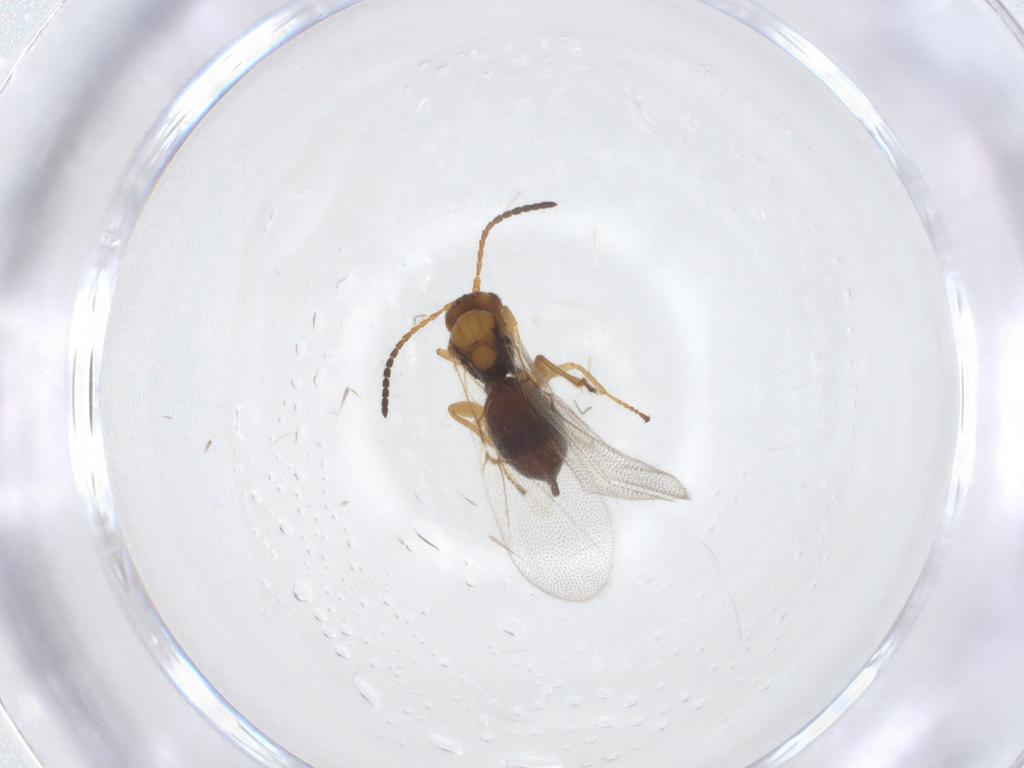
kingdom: Animalia
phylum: Arthropoda
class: Insecta
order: Hymenoptera
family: Cynipidae
